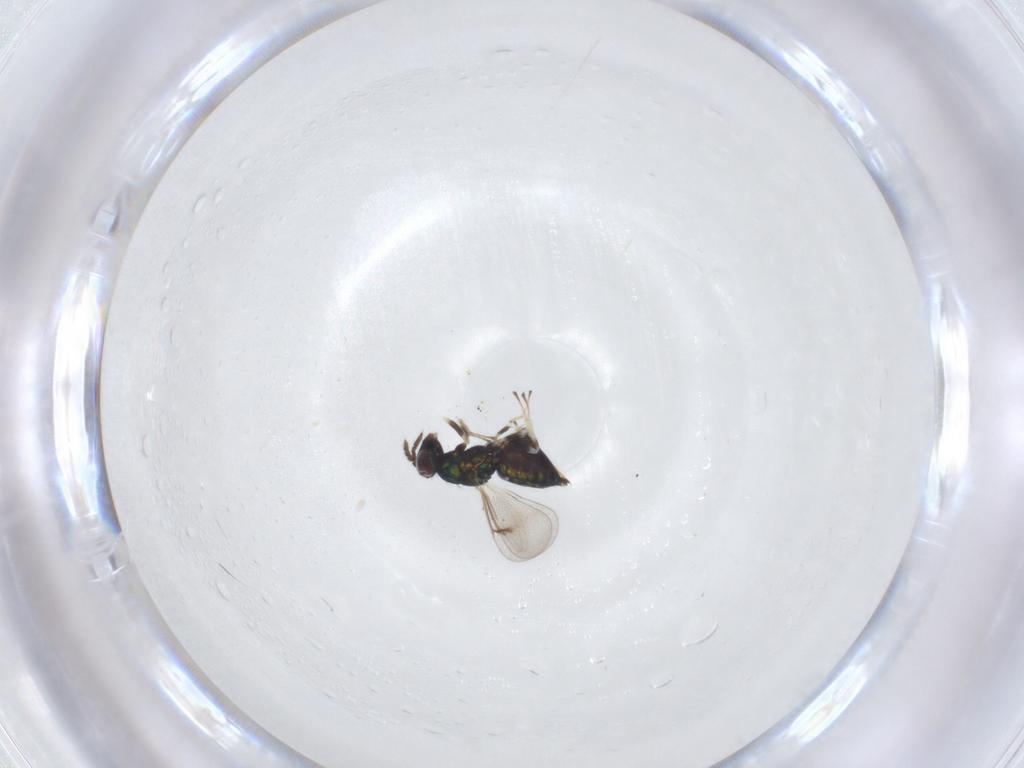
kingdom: Animalia
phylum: Arthropoda
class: Insecta
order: Hymenoptera
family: Eulophidae
